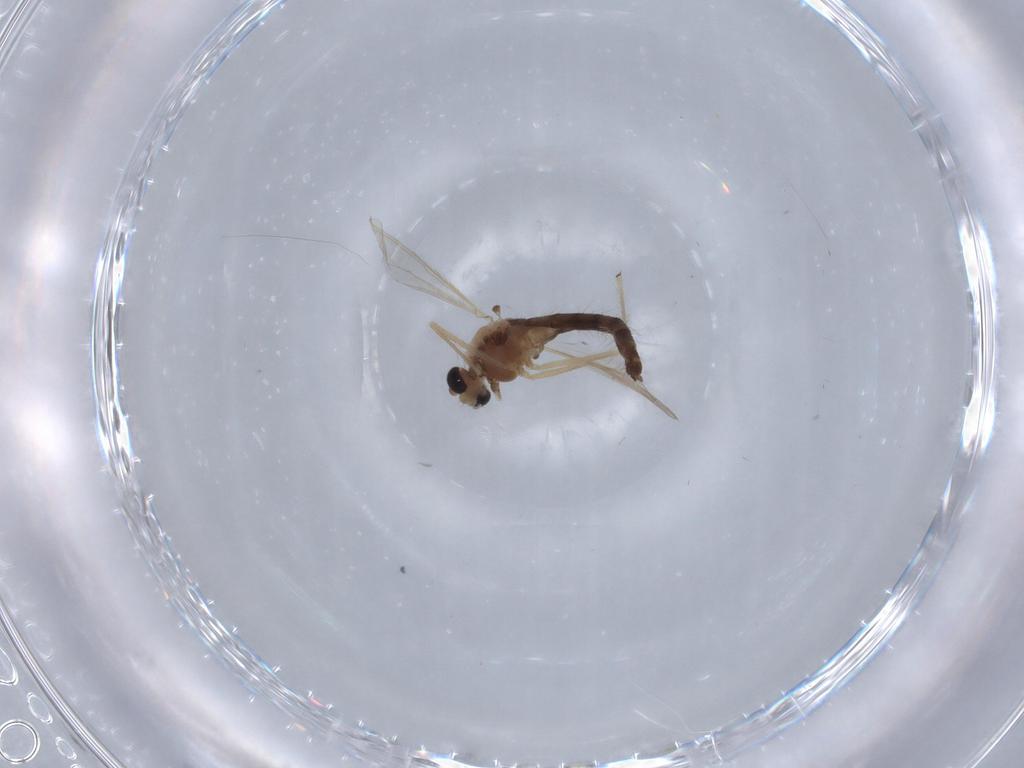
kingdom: Animalia
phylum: Arthropoda
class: Insecta
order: Diptera
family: Chironomidae
